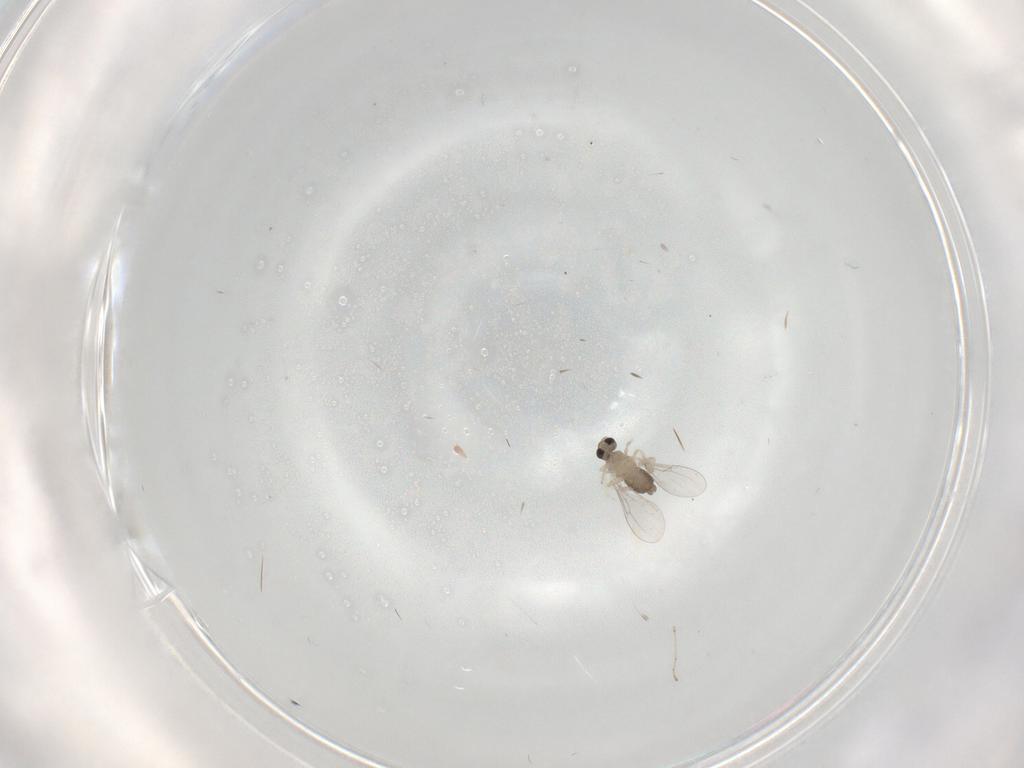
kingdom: Animalia
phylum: Arthropoda
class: Insecta
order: Diptera
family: Cecidomyiidae
